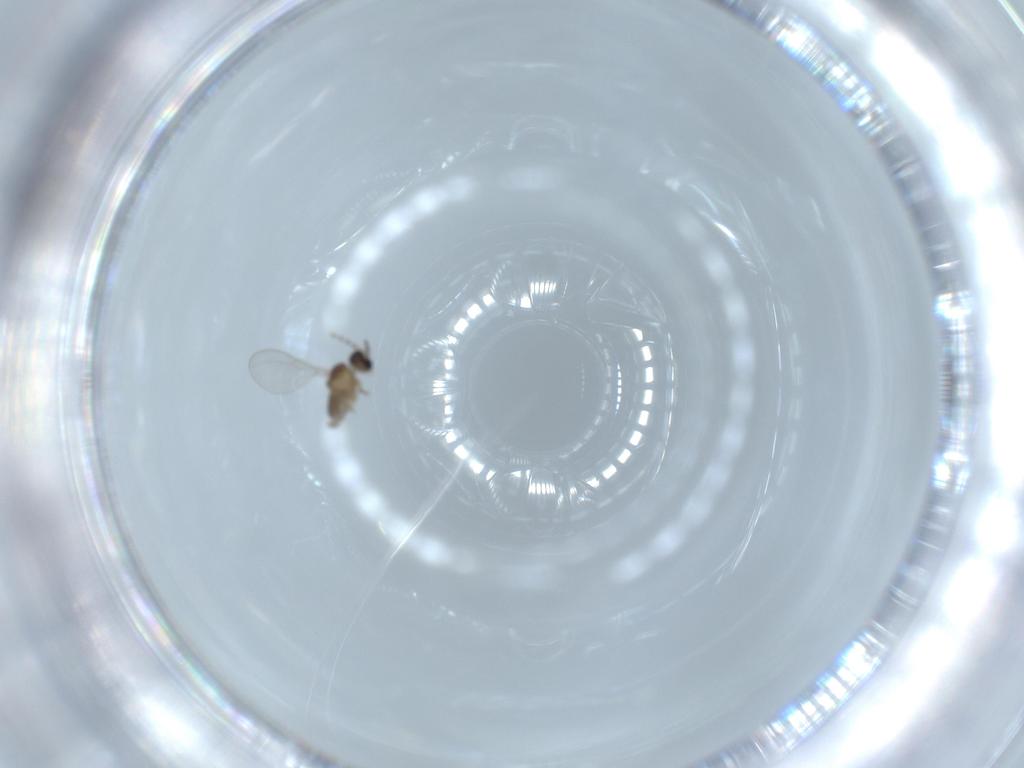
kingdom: Animalia
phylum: Arthropoda
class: Insecta
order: Diptera
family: Cecidomyiidae
